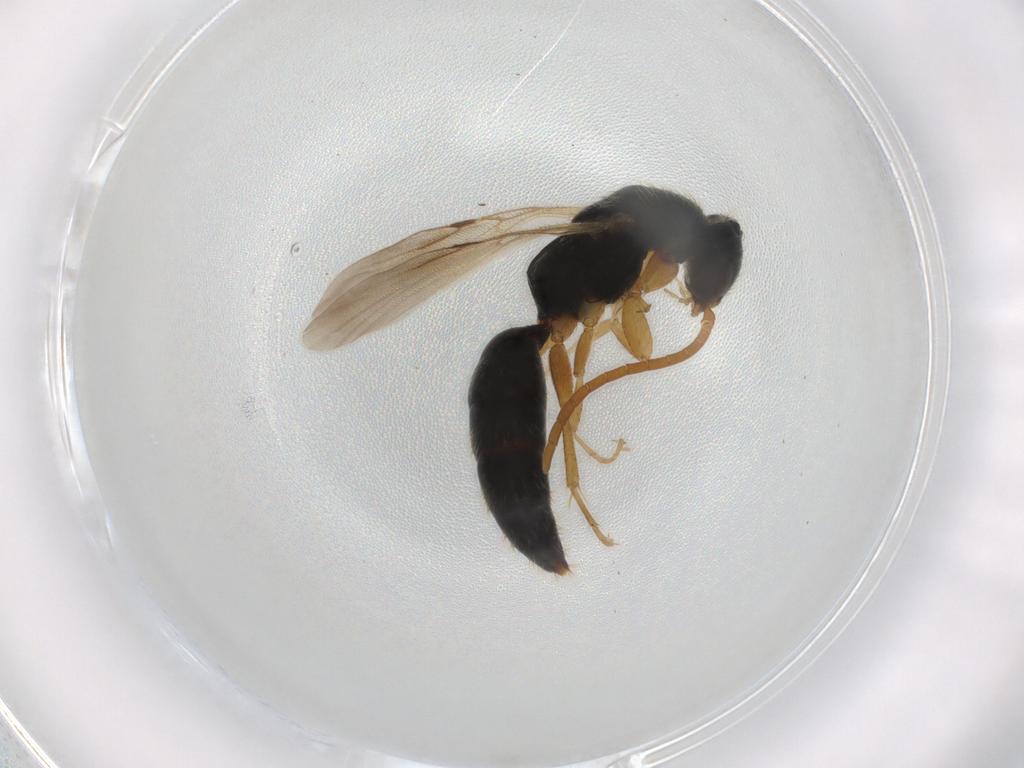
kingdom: Animalia
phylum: Arthropoda
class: Insecta
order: Hymenoptera
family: Bethylidae
